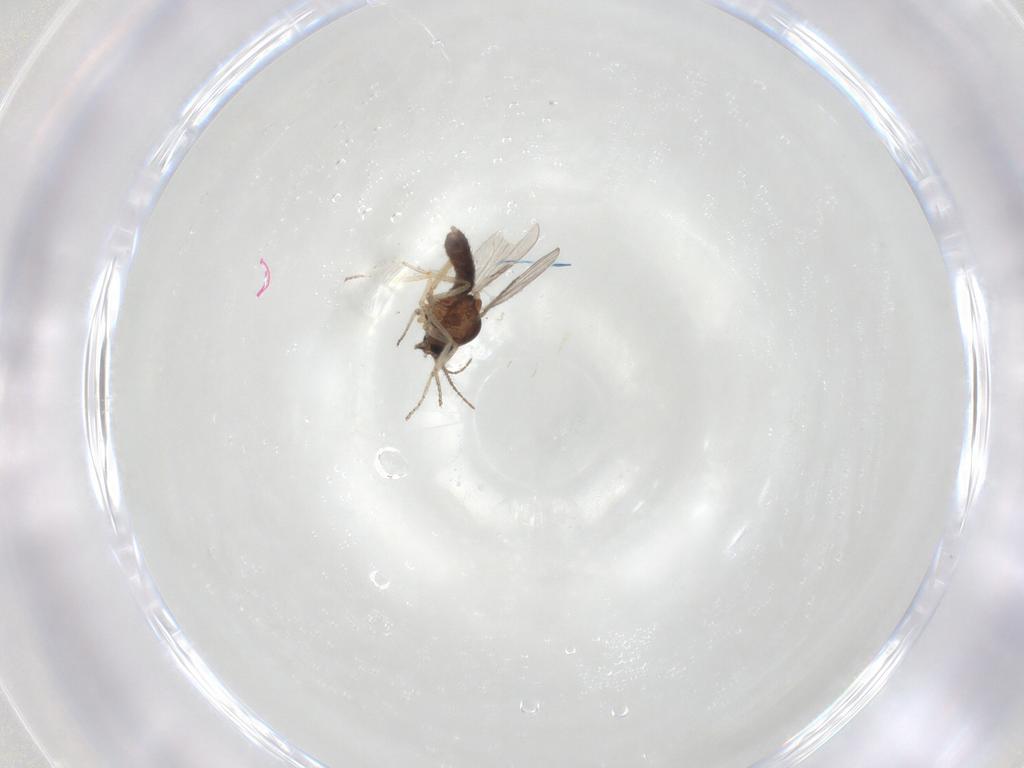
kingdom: Animalia
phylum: Arthropoda
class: Insecta
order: Diptera
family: Ceratopogonidae
